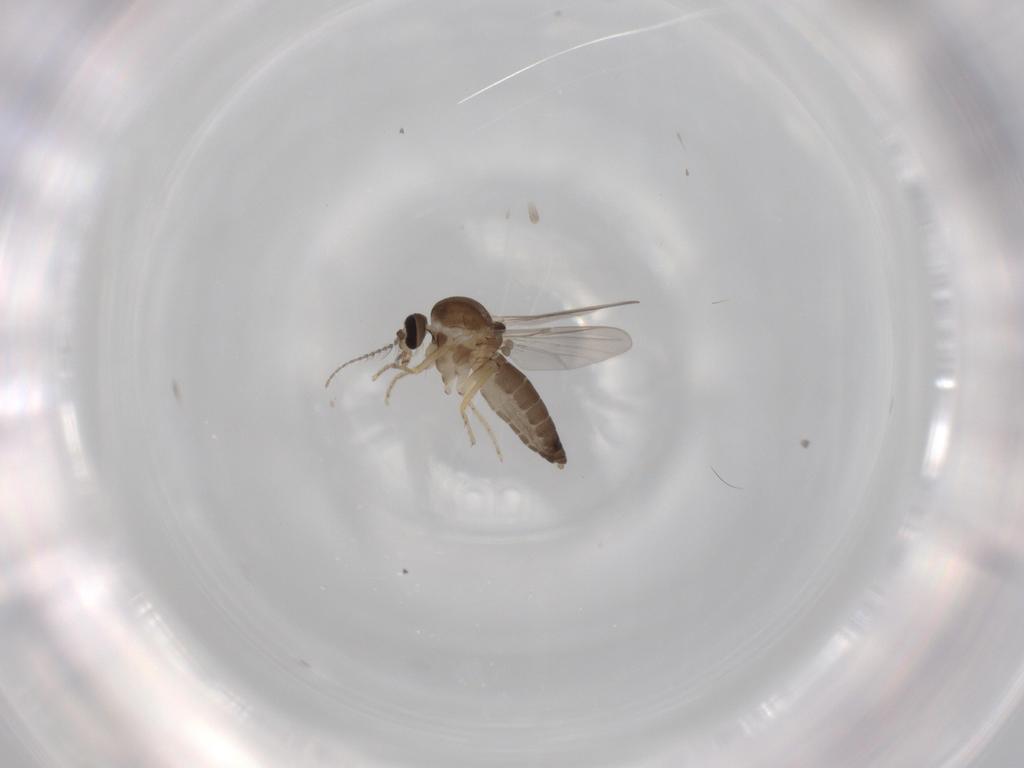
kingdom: Animalia
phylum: Arthropoda
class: Insecta
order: Diptera
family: Ceratopogonidae
